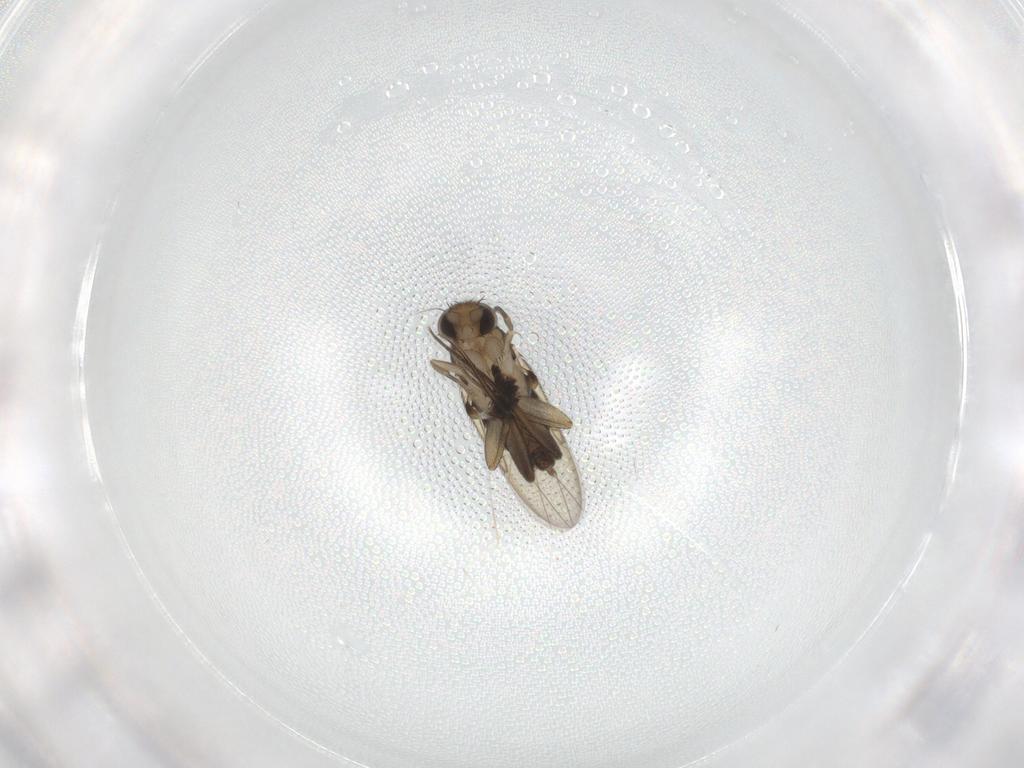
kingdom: Animalia
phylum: Arthropoda
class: Insecta
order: Diptera
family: Phoridae
